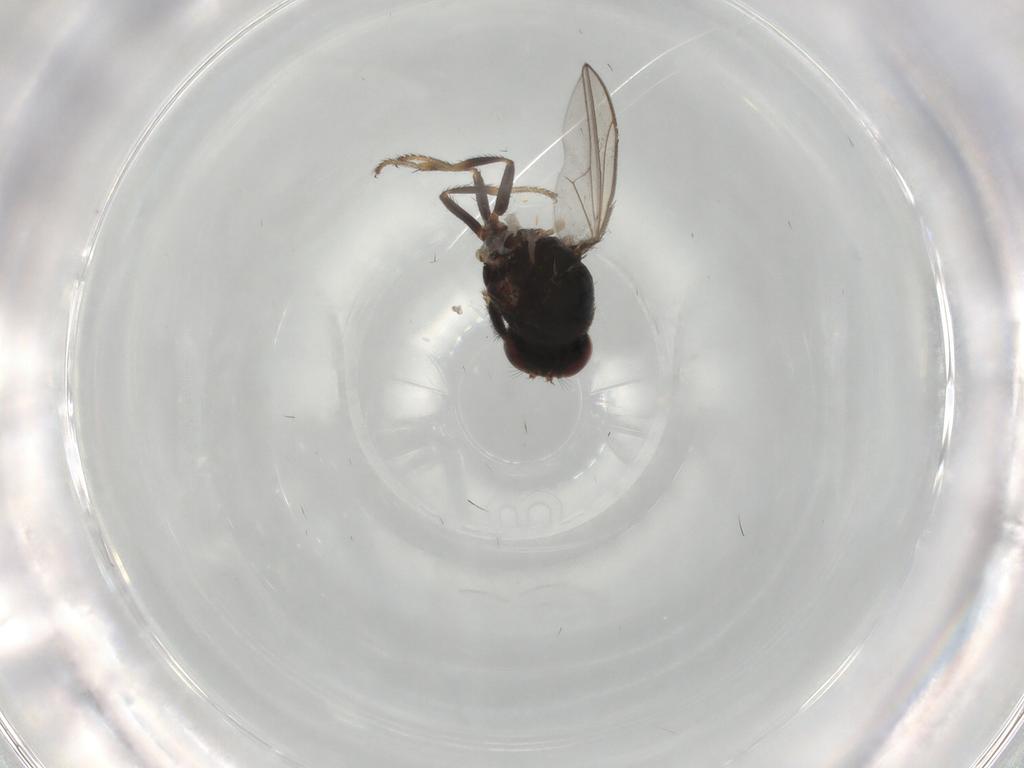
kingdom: Animalia
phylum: Arthropoda
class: Insecta
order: Diptera
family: Ephydridae
